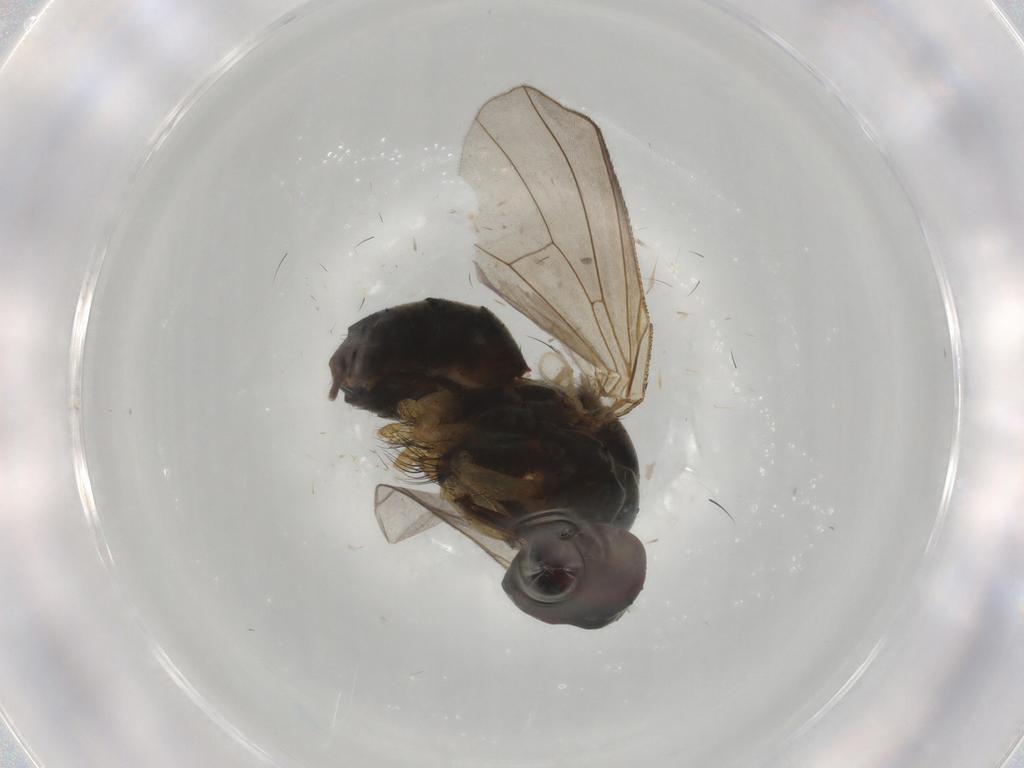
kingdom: Animalia
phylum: Arthropoda
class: Insecta
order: Diptera
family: Muscidae
